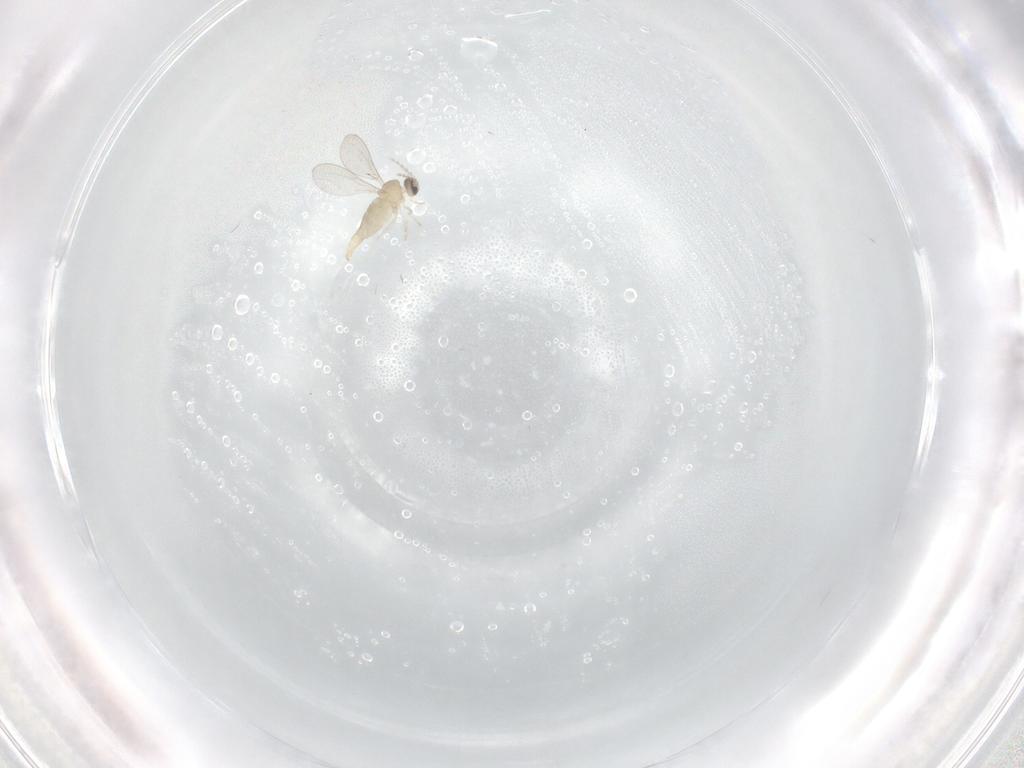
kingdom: Animalia
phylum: Arthropoda
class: Insecta
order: Diptera
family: Cecidomyiidae
